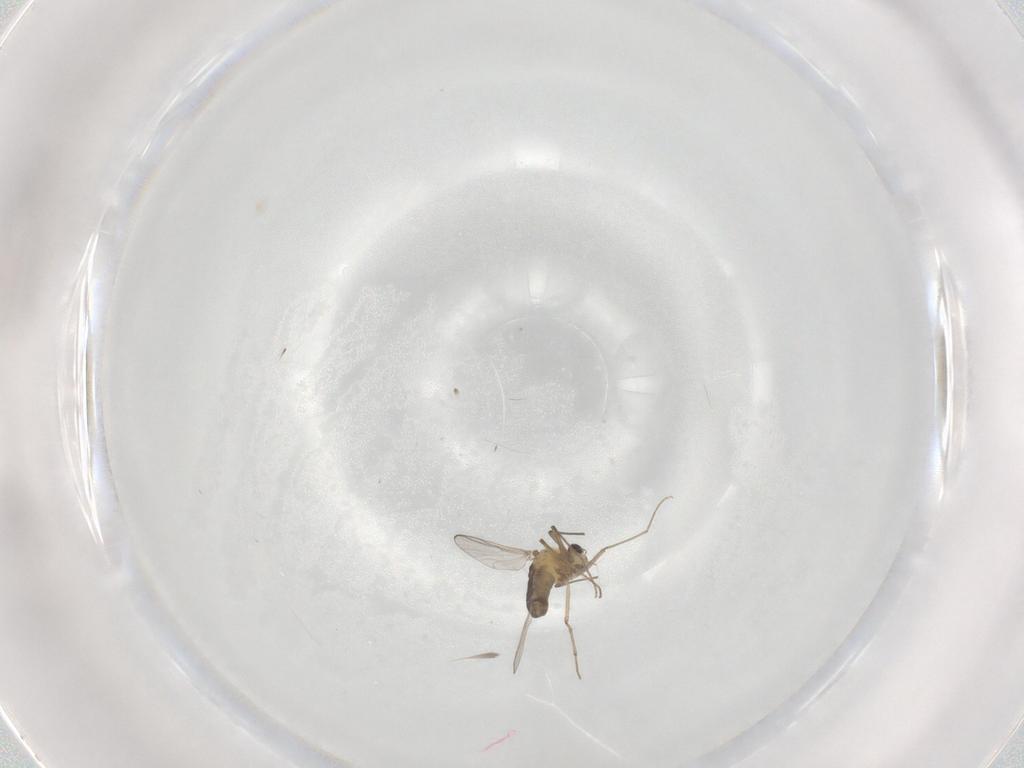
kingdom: Animalia
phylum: Arthropoda
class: Insecta
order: Diptera
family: Chironomidae
